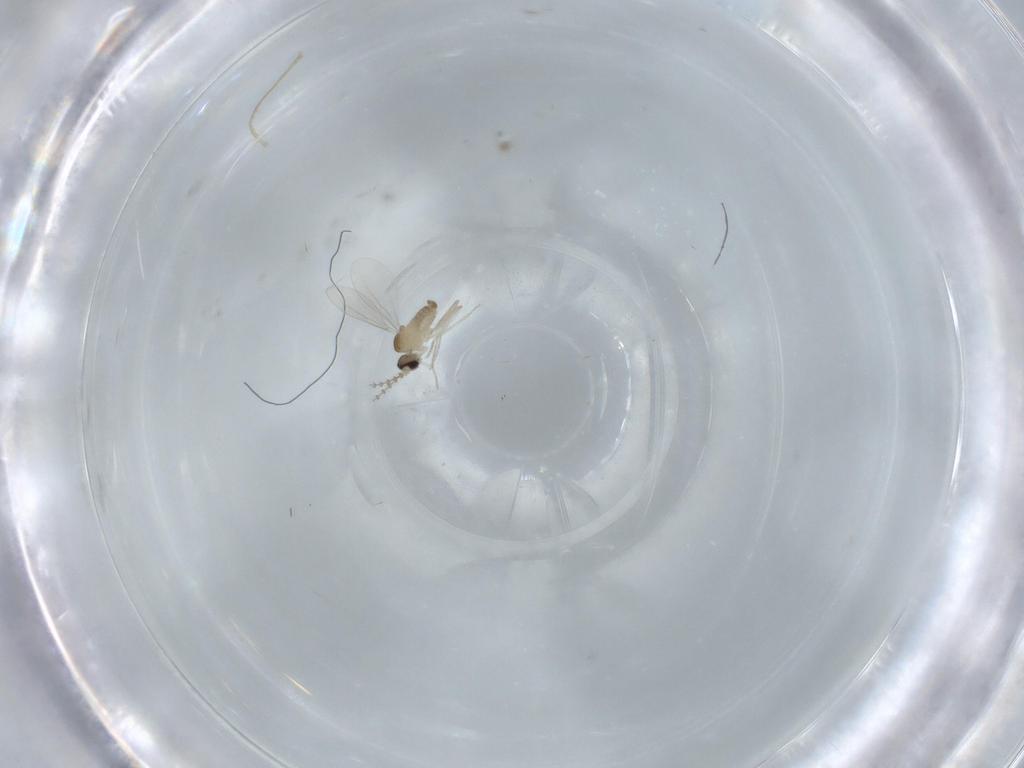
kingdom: Animalia
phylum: Arthropoda
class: Insecta
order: Diptera
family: Cecidomyiidae
